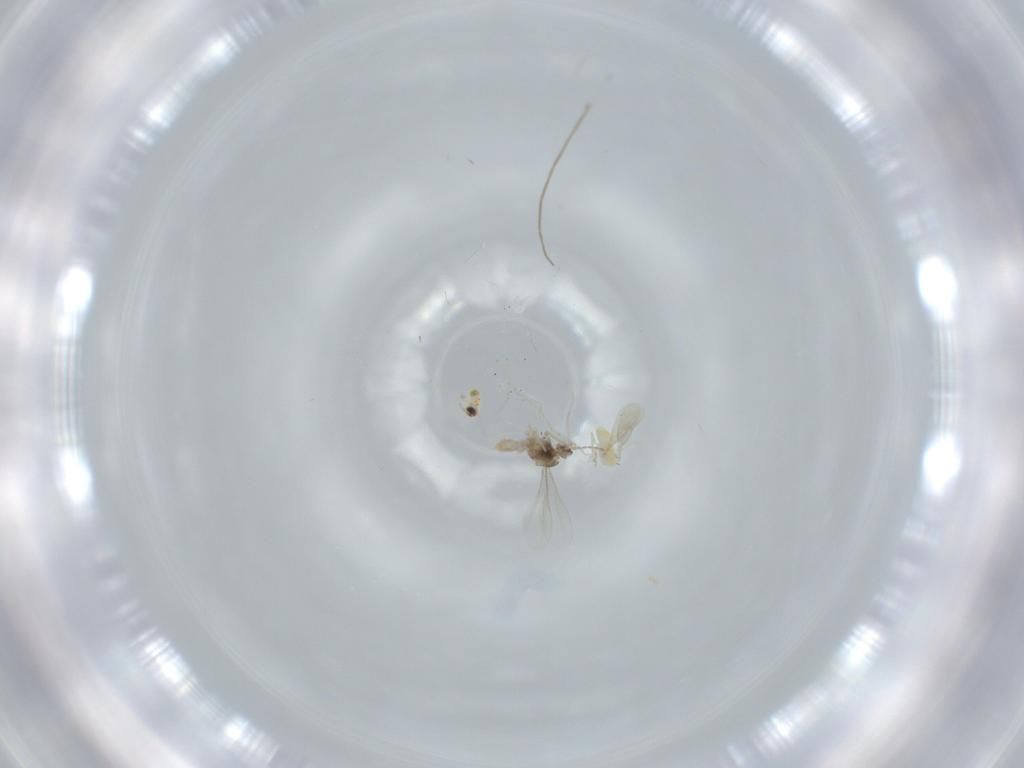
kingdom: Animalia
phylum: Arthropoda
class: Insecta
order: Diptera
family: Chironomidae
